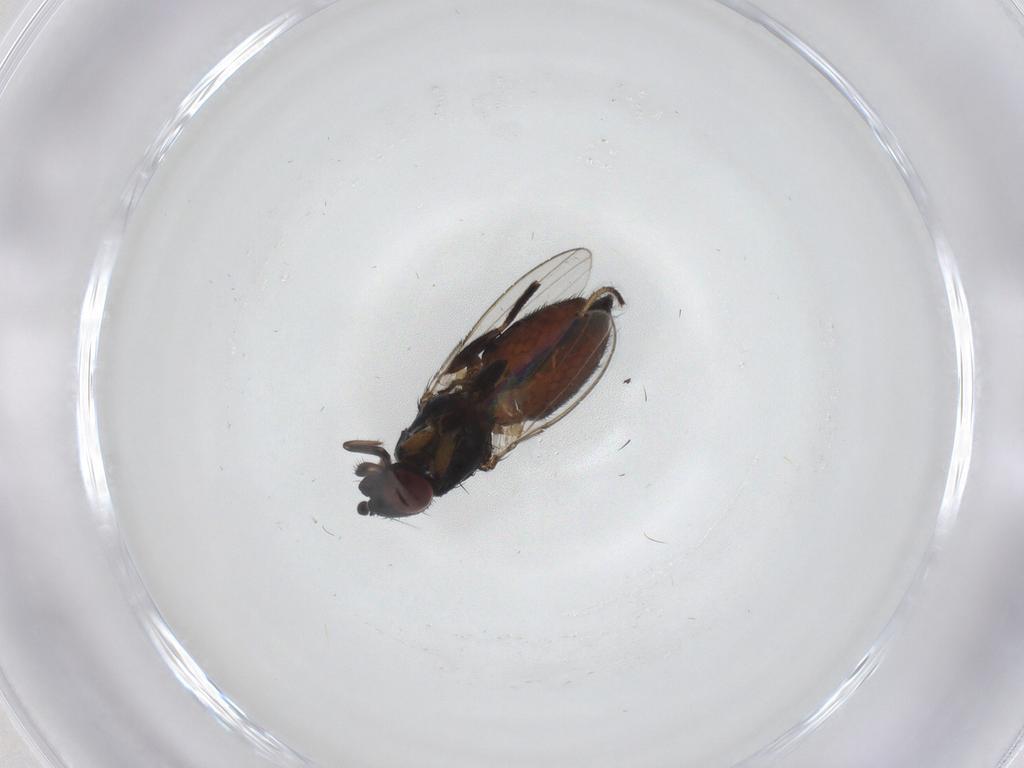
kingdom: Animalia
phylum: Arthropoda
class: Insecta
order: Diptera
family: Milichiidae
